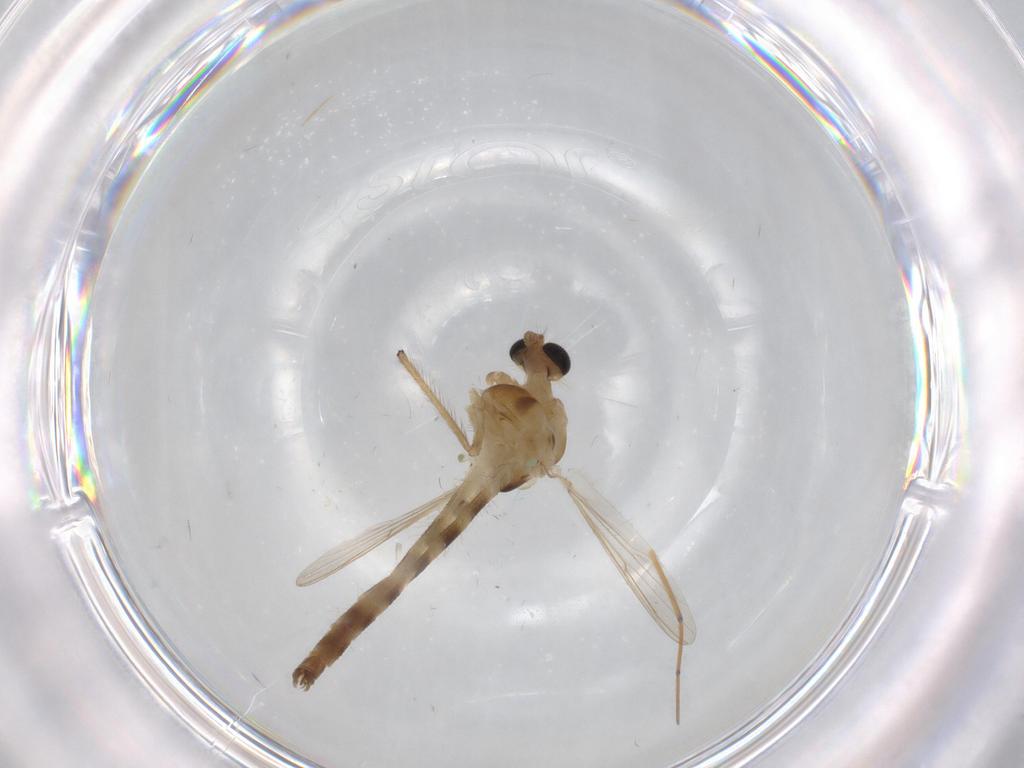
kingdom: Animalia
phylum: Arthropoda
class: Insecta
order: Diptera
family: Chironomidae
